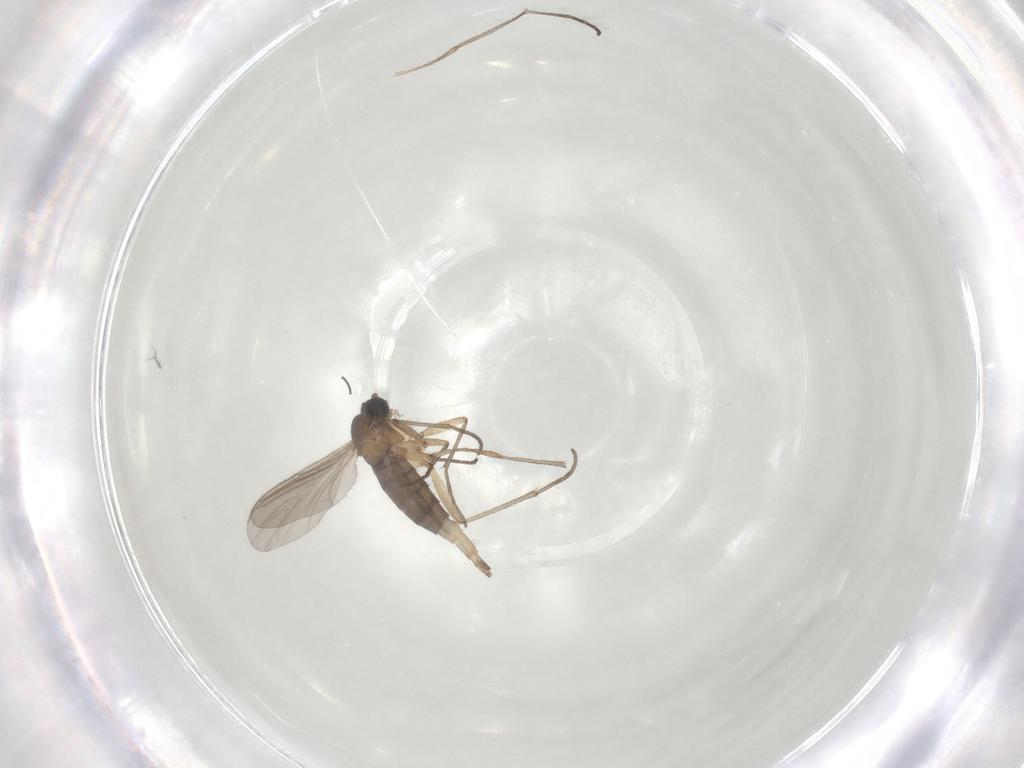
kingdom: Animalia
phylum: Arthropoda
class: Insecta
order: Diptera
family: Sciaridae
